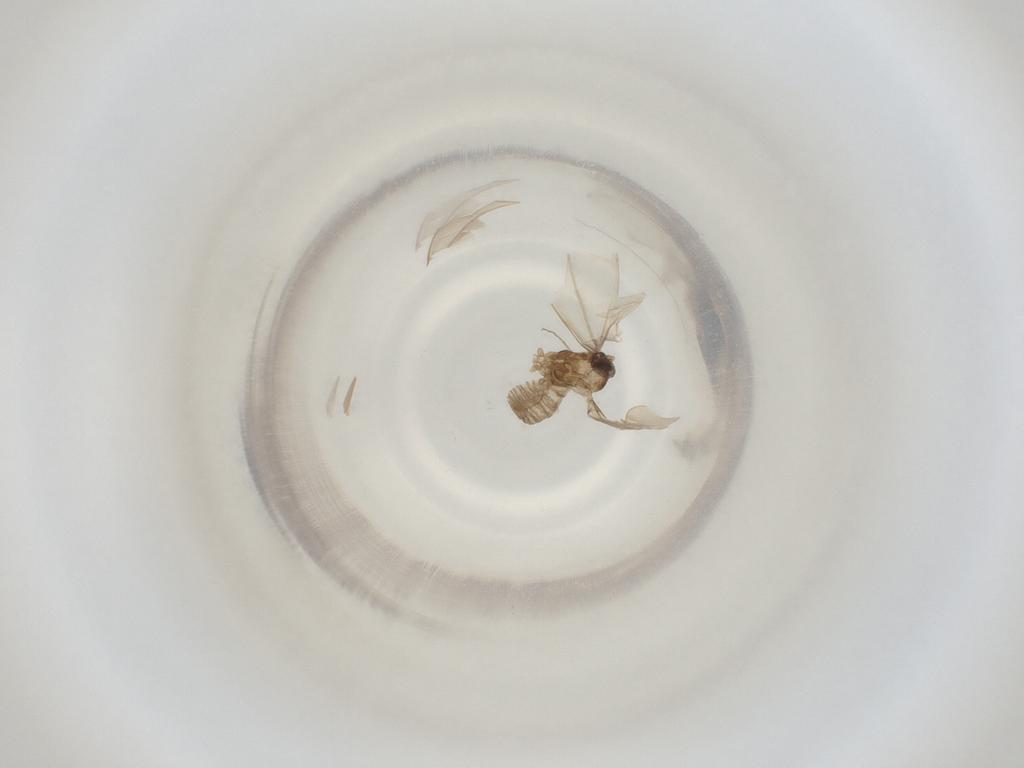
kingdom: Animalia
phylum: Arthropoda
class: Insecta
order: Diptera
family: Cecidomyiidae
